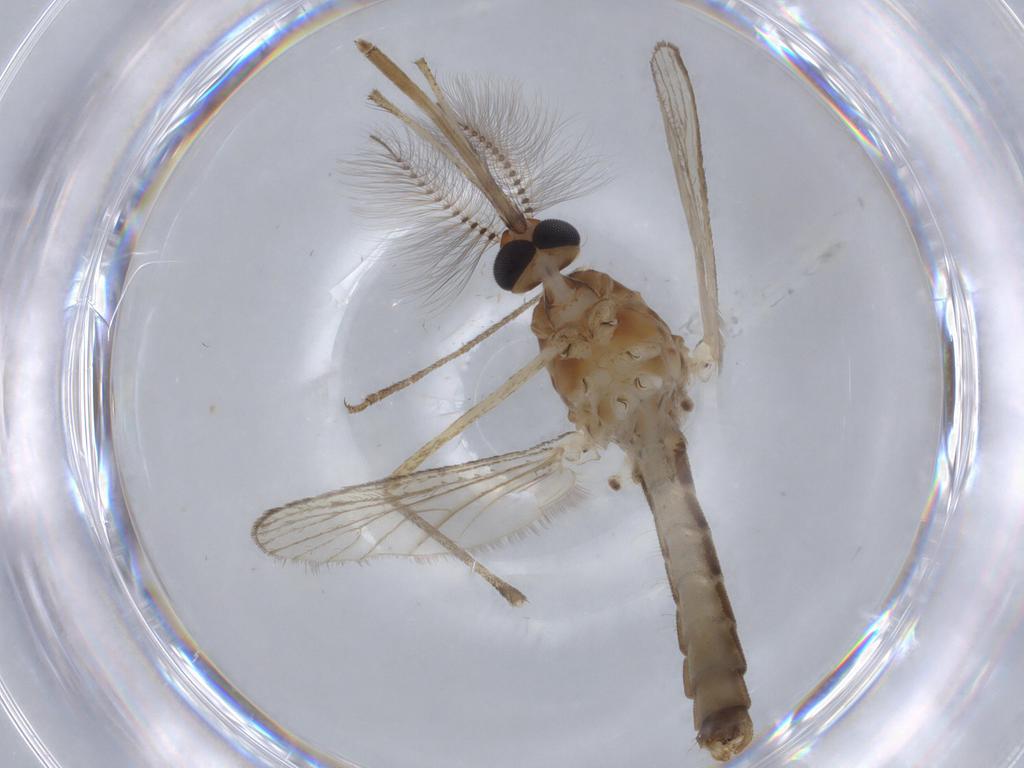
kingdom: Animalia
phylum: Arthropoda
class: Insecta
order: Diptera
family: Culicidae
